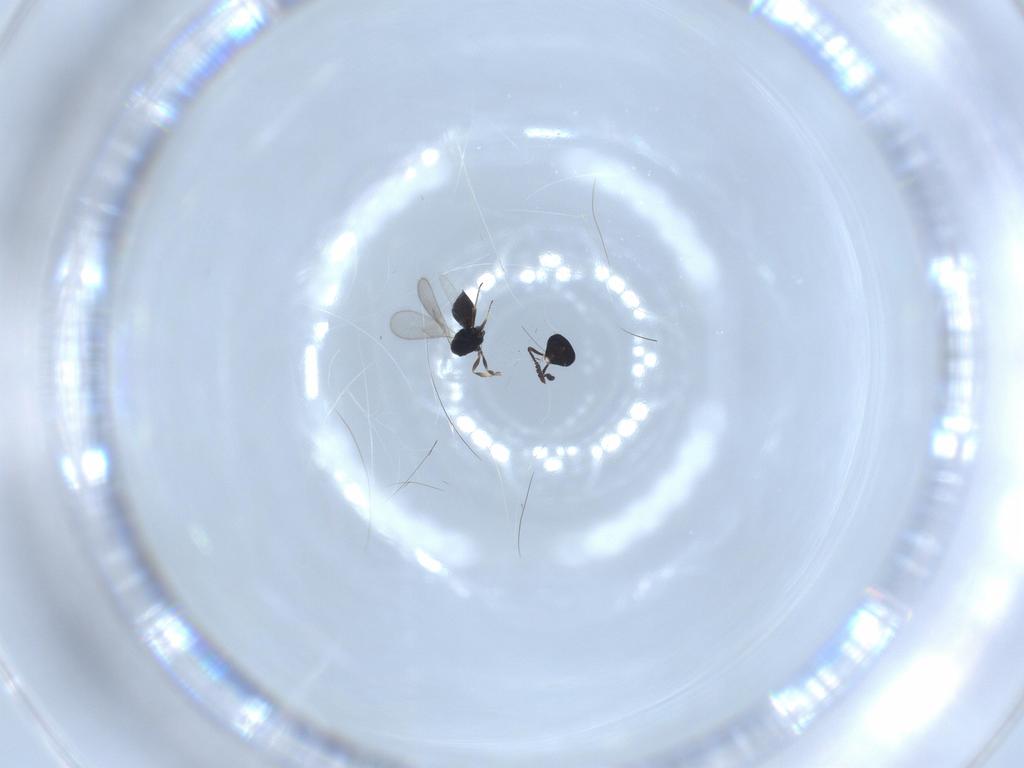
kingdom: Animalia
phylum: Arthropoda
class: Insecta
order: Hymenoptera
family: Scelionidae
